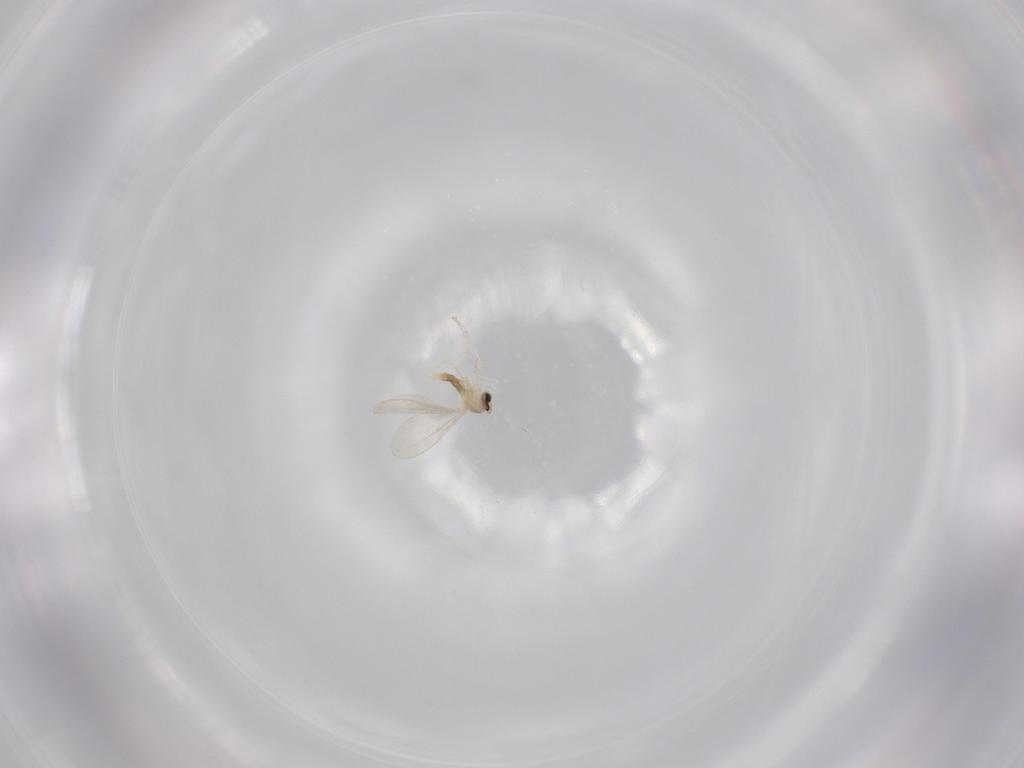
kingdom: Animalia
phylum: Arthropoda
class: Insecta
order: Diptera
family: Cecidomyiidae
